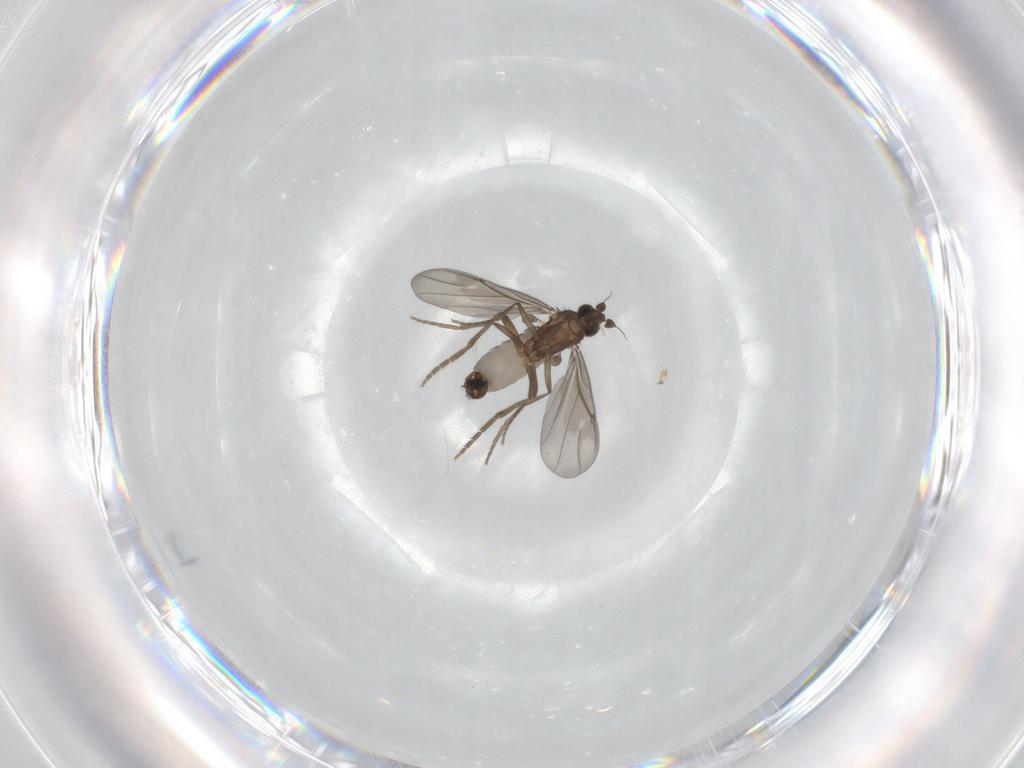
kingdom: Animalia
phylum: Arthropoda
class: Insecta
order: Diptera
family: Phoridae
